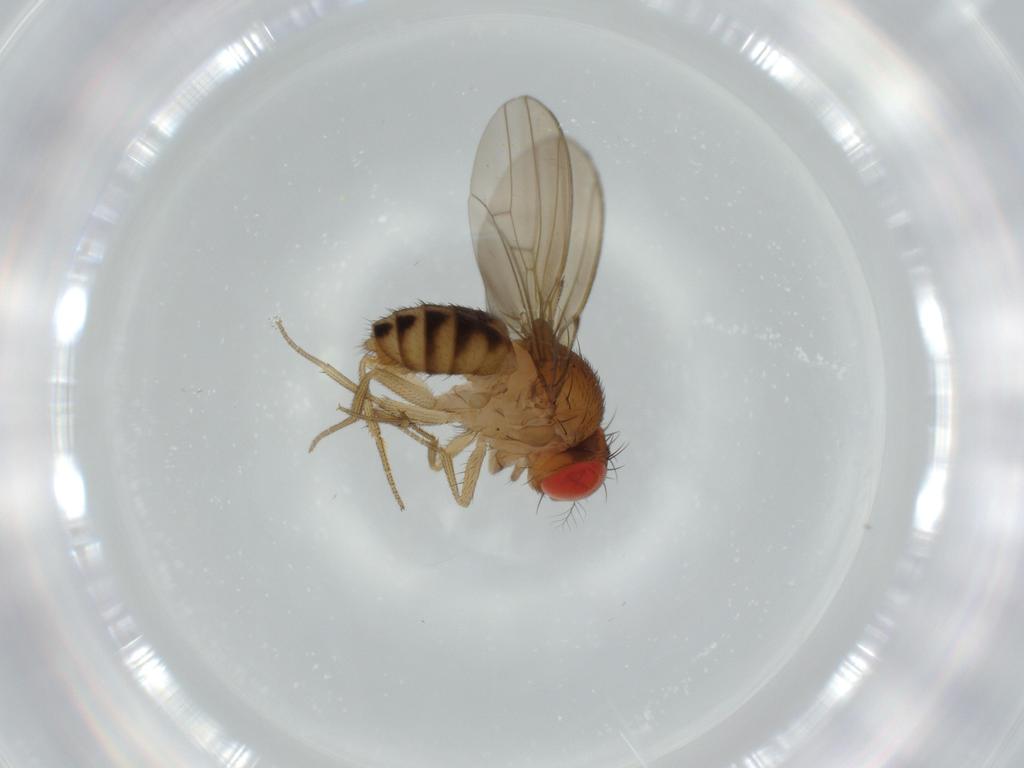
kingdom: Animalia
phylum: Arthropoda
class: Insecta
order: Diptera
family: Drosophilidae
